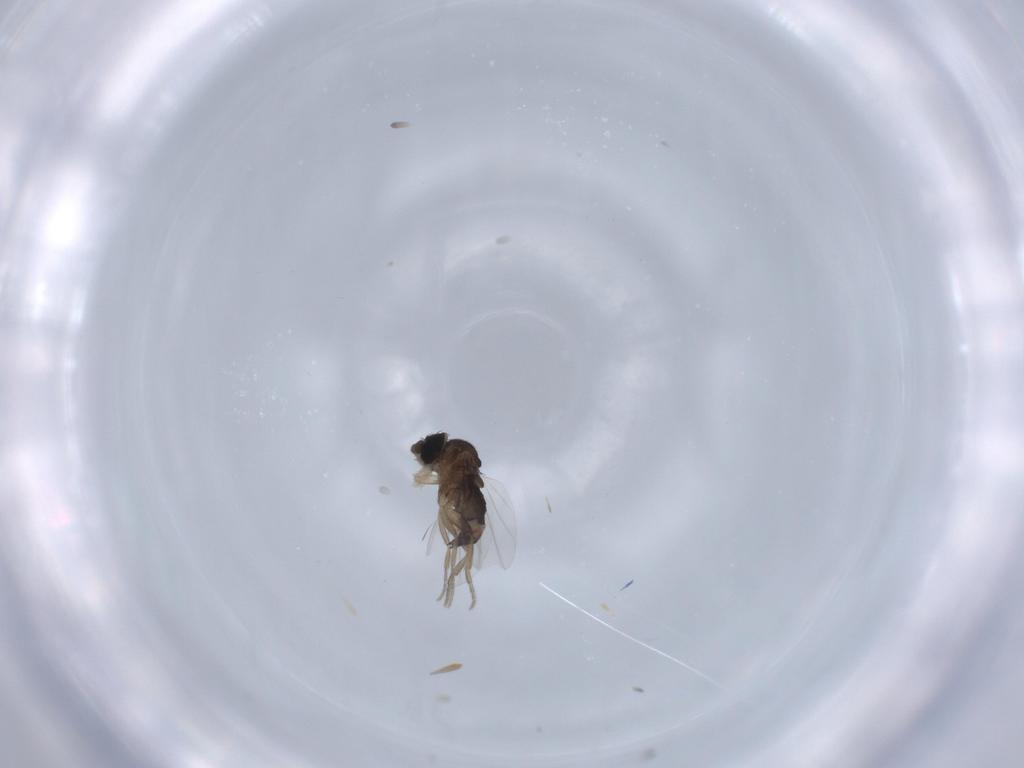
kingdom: Animalia
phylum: Arthropoda
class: Insecta
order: Diptera
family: Phoridae
